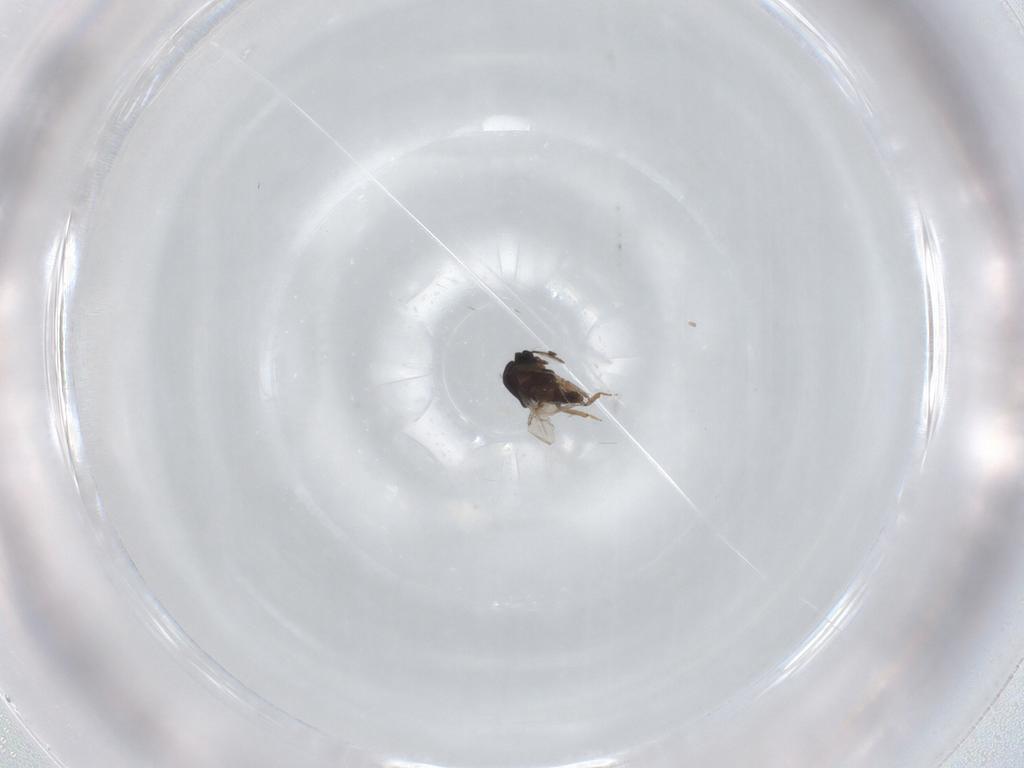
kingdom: Animalia
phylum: Arthropoda
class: Insecta
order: Diptera
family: Ceratopogonidae
